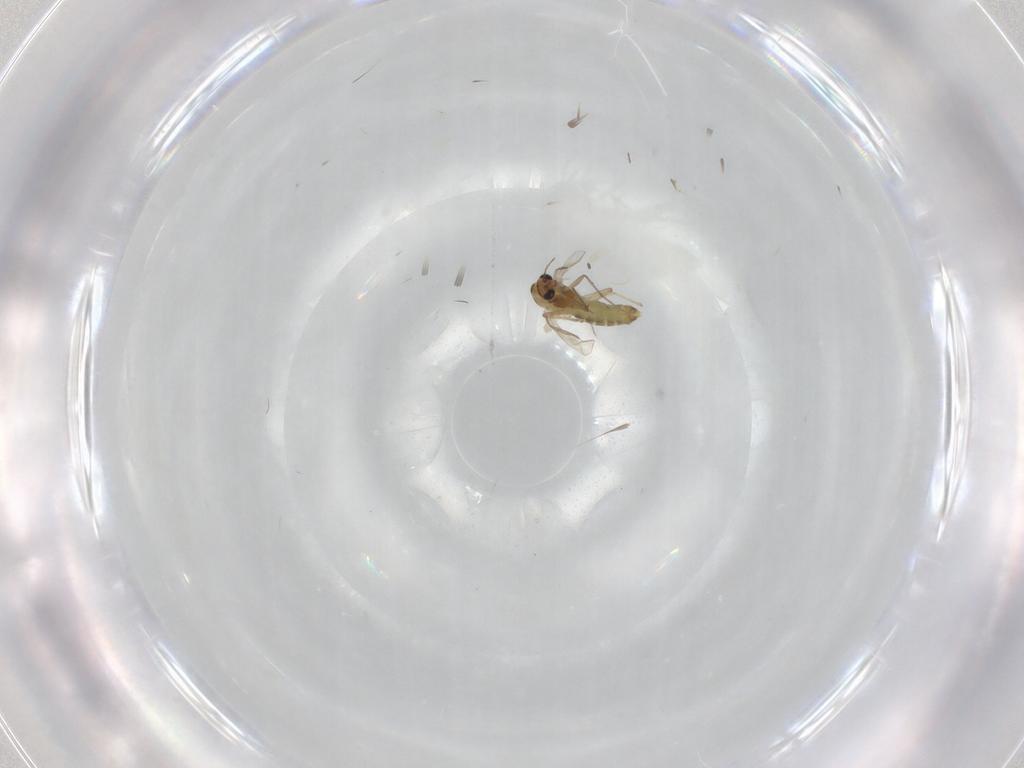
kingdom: Animalia
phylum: Arthropoda
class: Insecta
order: Diptera
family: Chironomidae
